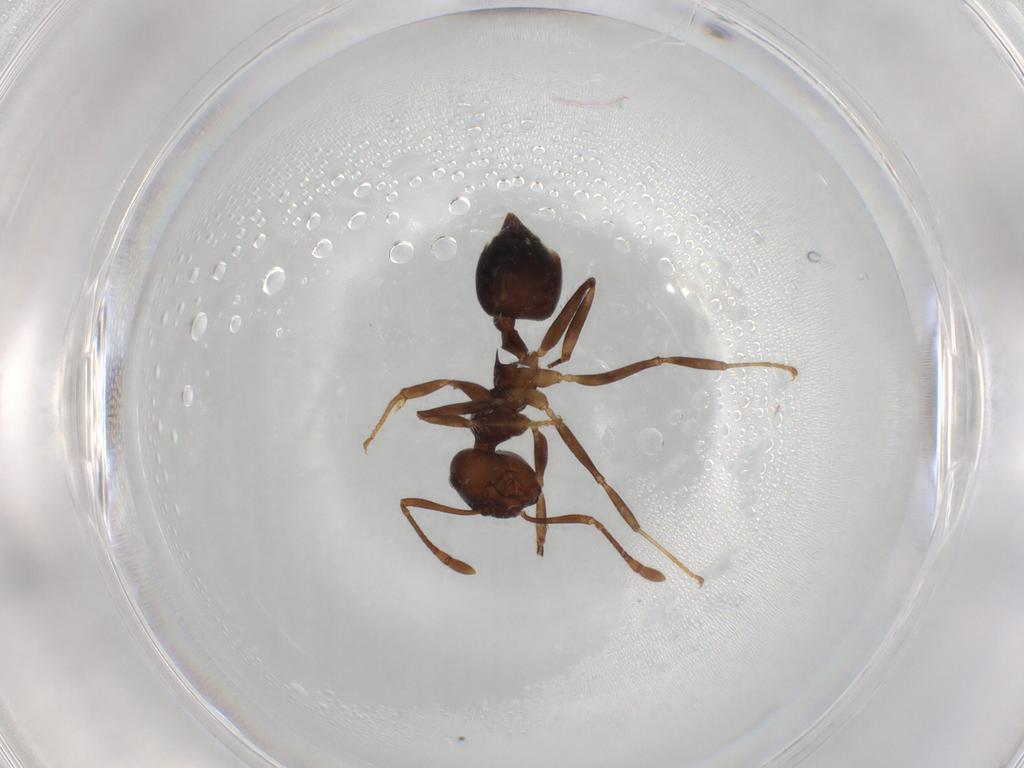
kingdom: Animalia
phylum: Arthropoda
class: Insecta
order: Hymenoptera
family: Formicidae
